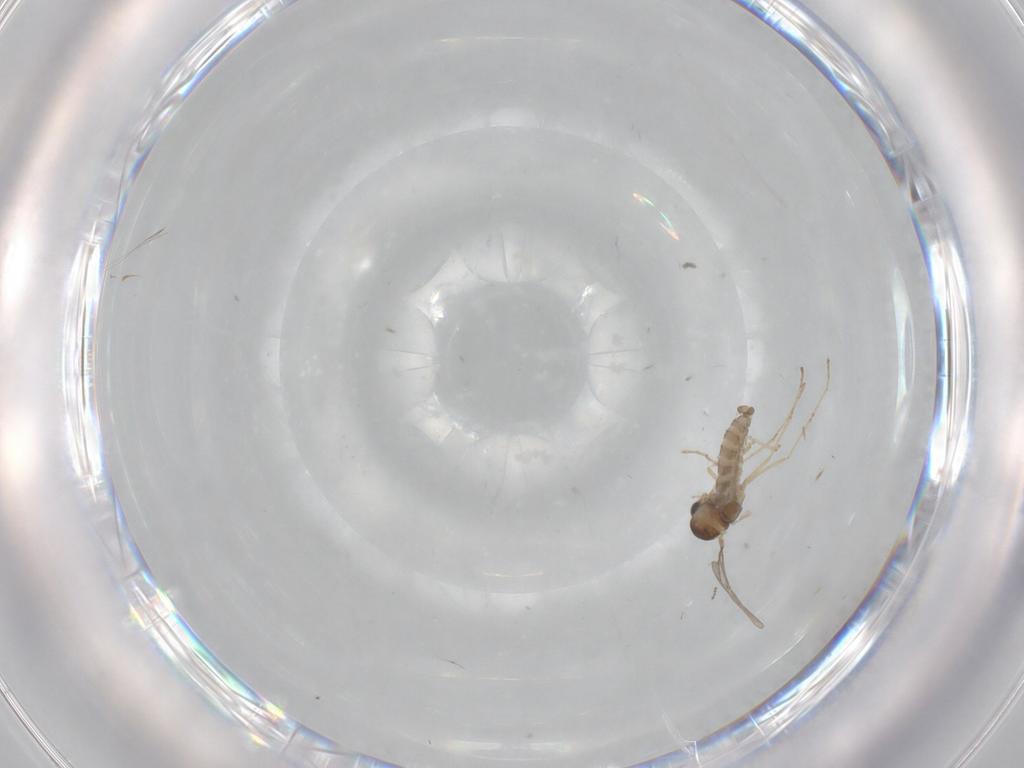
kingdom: Animalia
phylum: Arthropoda
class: Insecta
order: Diptera
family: Cecidomyiidae
